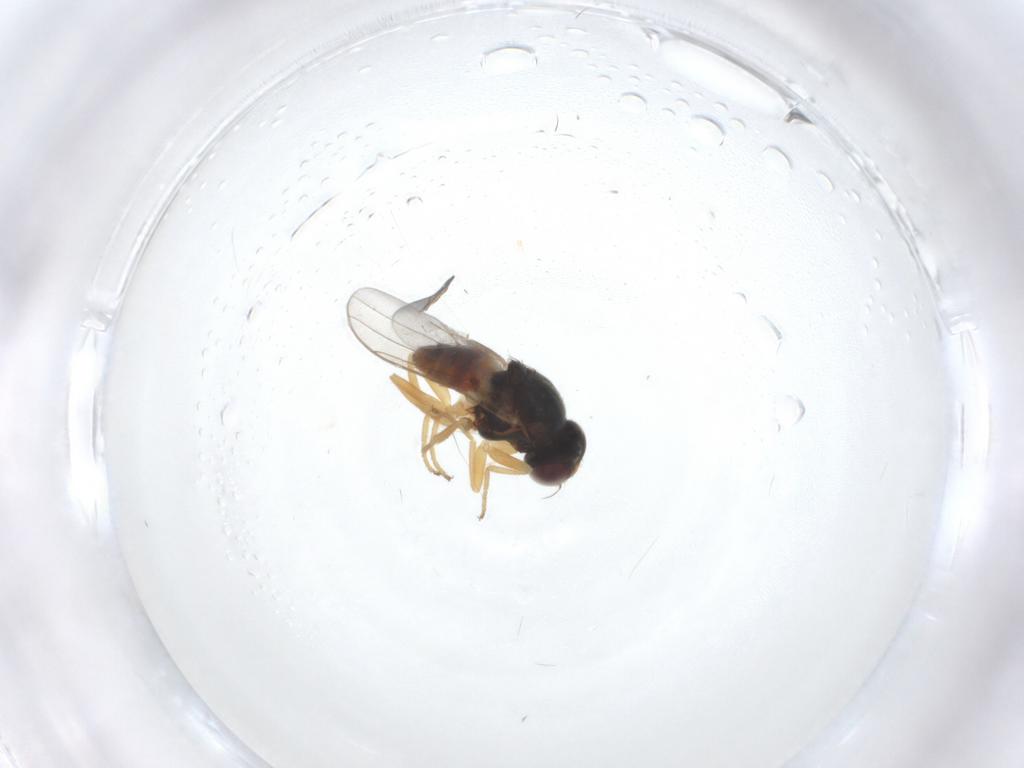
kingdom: Animalia
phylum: Arthropoda
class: Insecta
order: Diptera
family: Chloropidae
